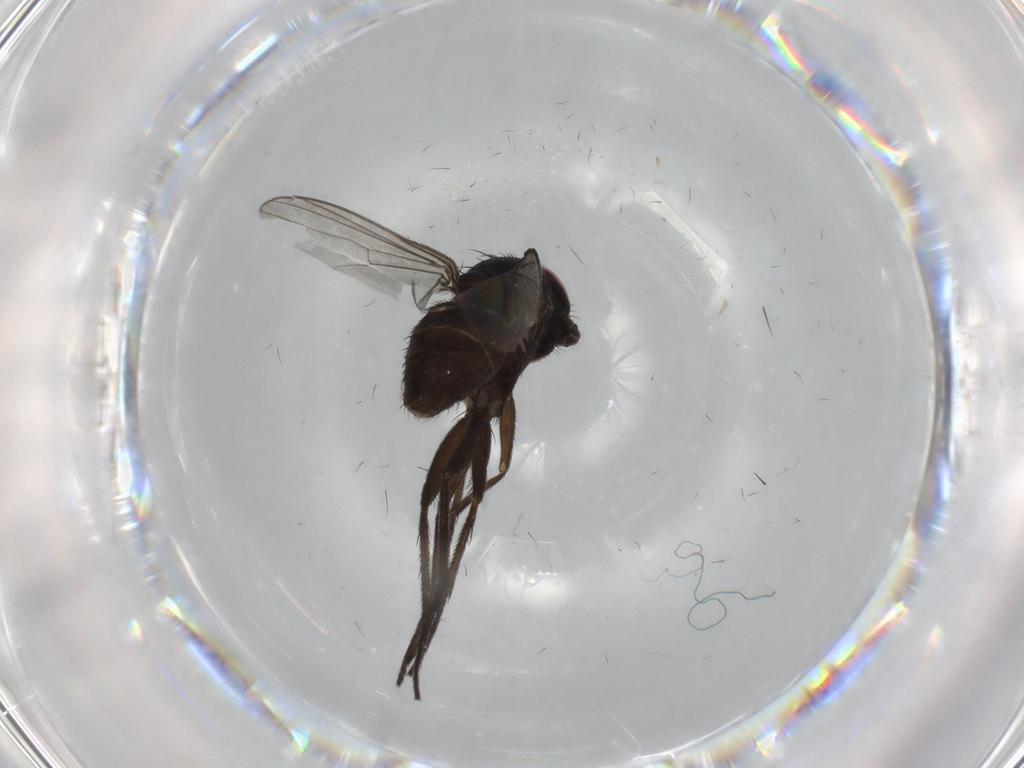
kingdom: Animalia
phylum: Arthropoda
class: Insecta
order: Diptera
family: Dolichopodidae
